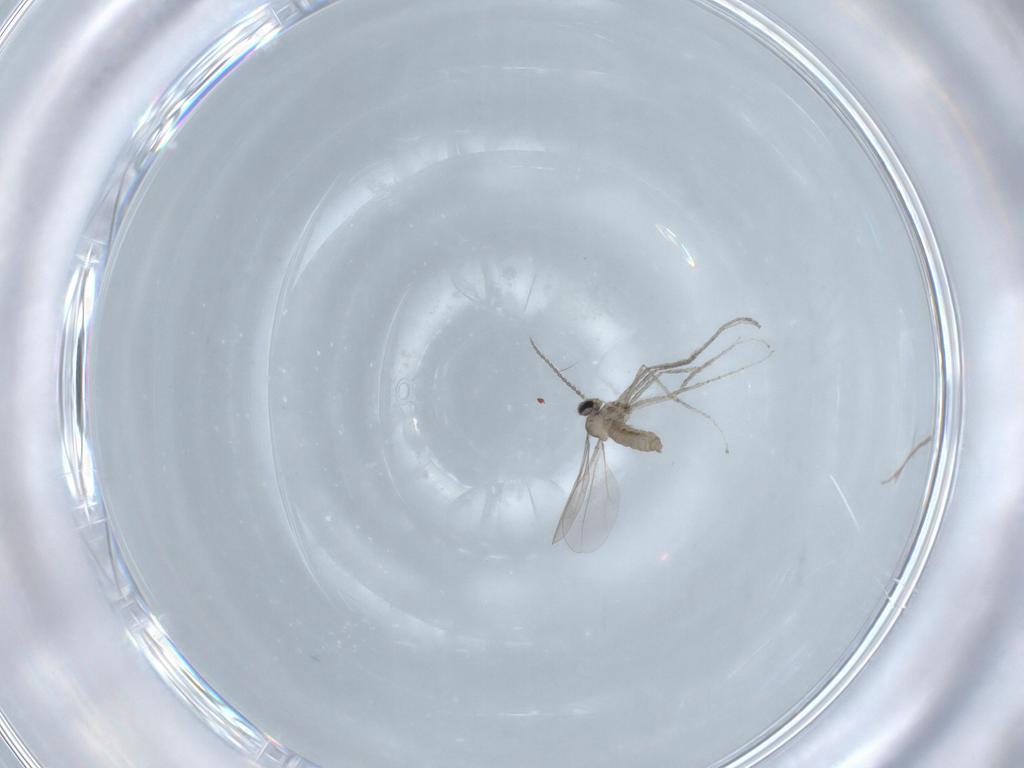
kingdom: Animalia
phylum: Arthropoda
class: Insecta
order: Diptera
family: Cecidomyiidae
